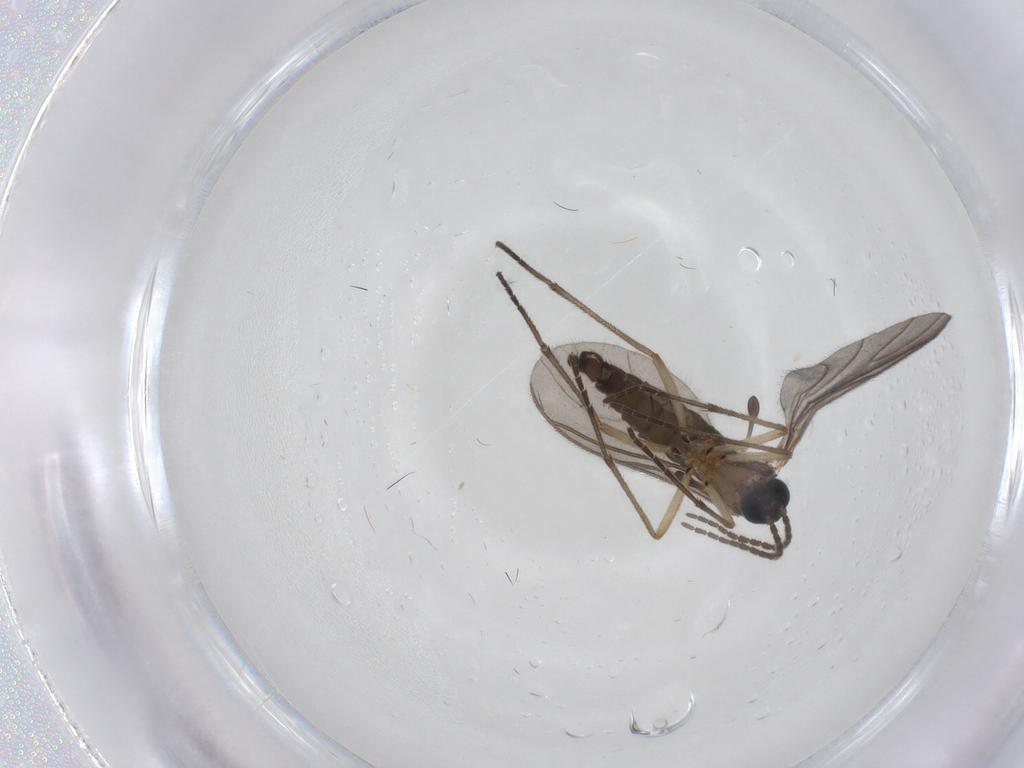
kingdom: Animalia
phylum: Arthropoda
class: Insecta
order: Diptera
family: Sciaridae
